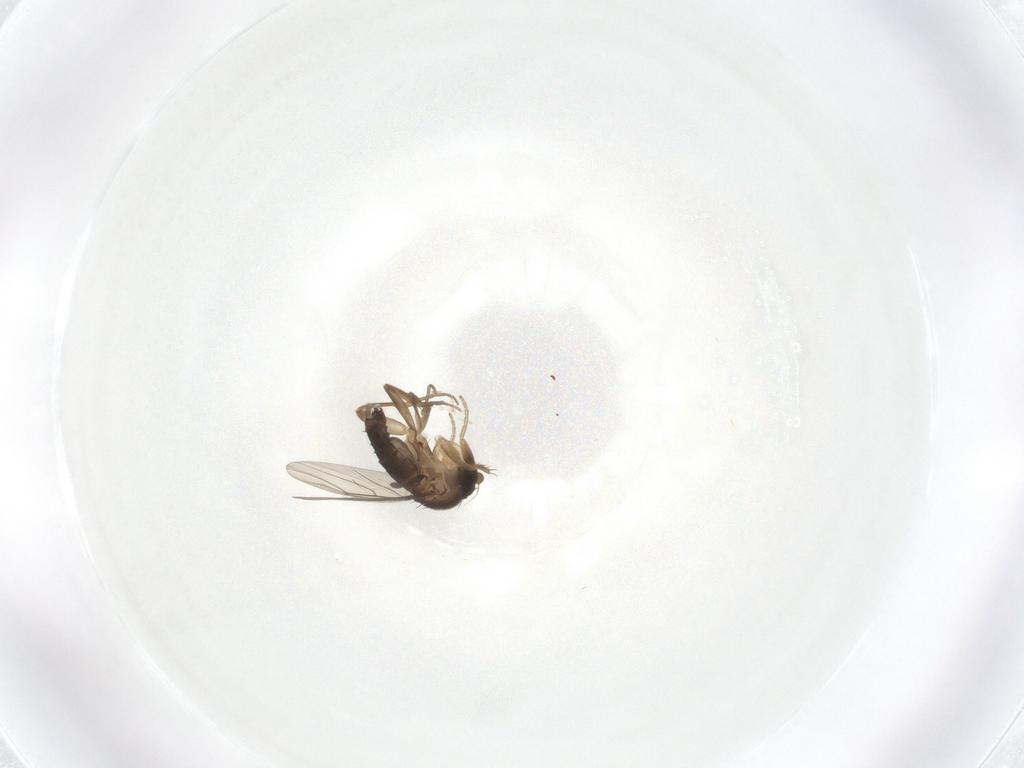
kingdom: Animalia
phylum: Arthropoda
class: Insecta
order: Diptera
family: Phoridae
